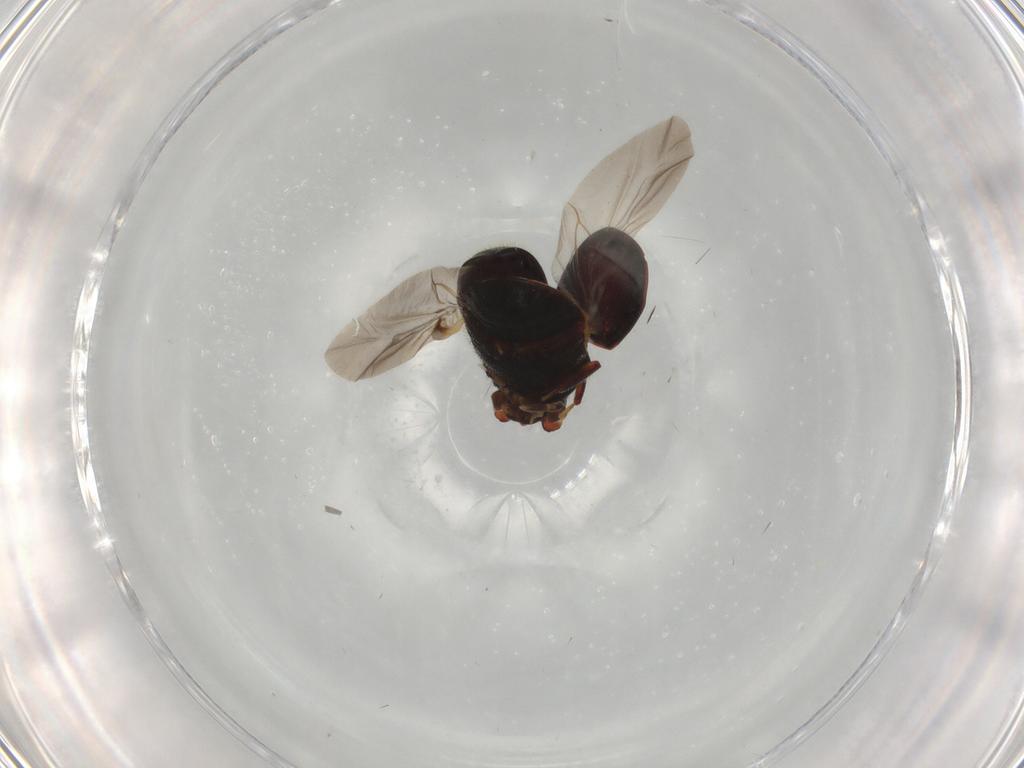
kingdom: Animalia
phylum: Arthropoda
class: Insecta
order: Coleoptera
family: Ptinidae
